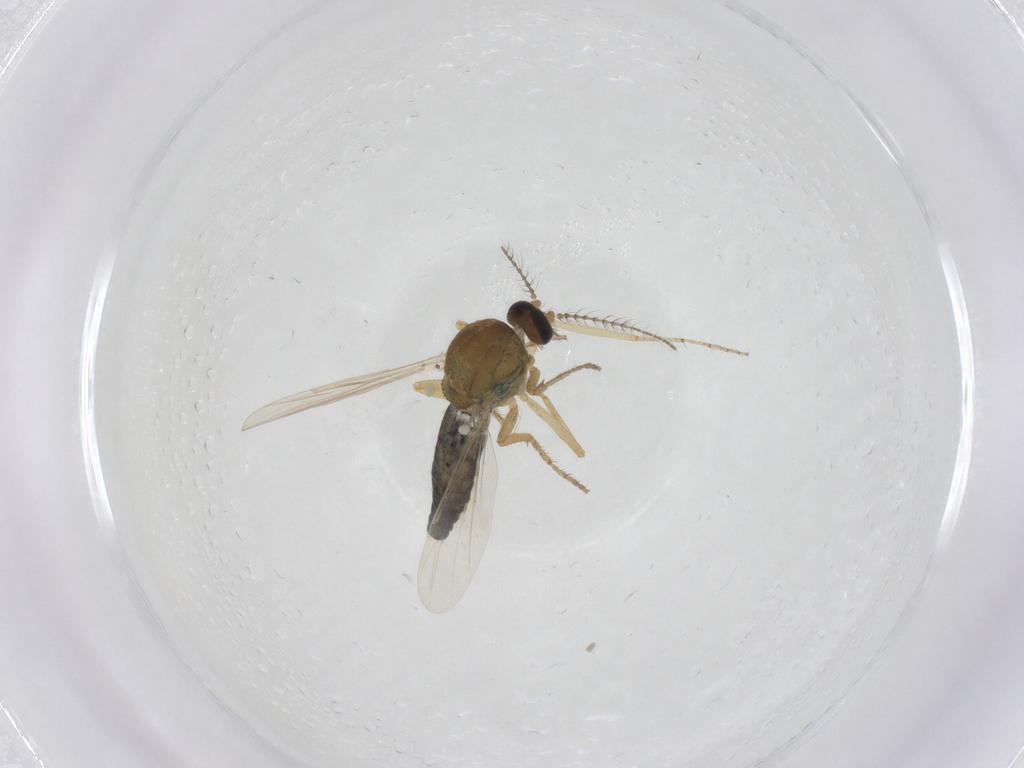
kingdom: Animalia
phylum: Arthropoda
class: Insecta
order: Diptera
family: Ceratopogonidae
